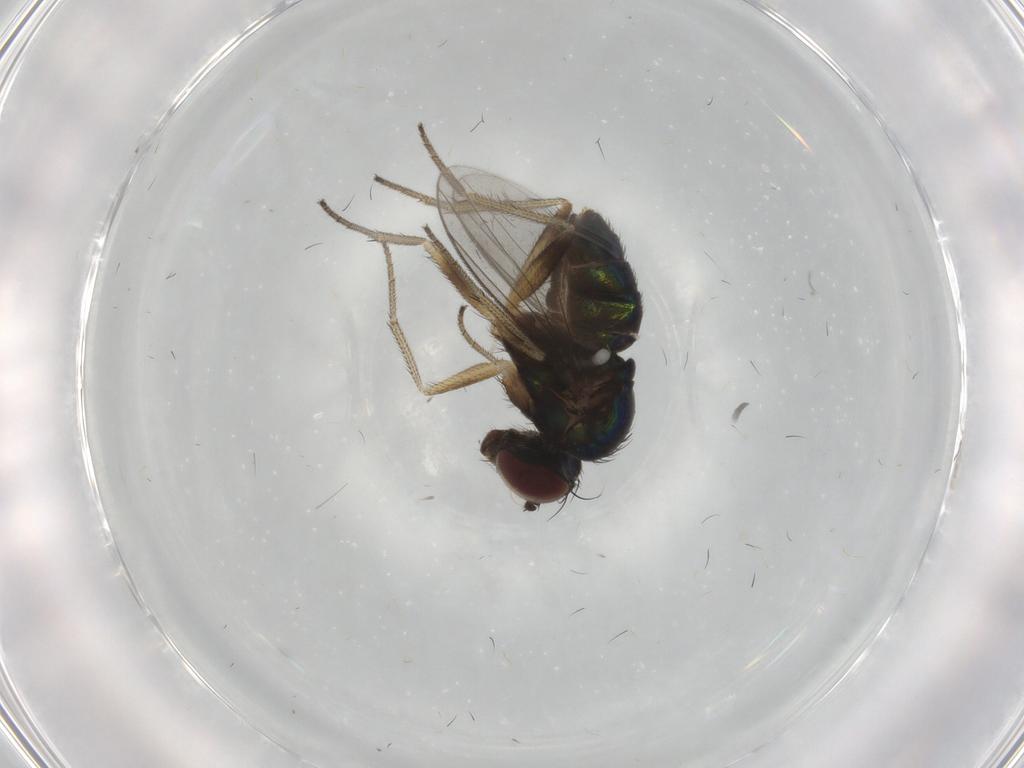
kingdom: Animalia
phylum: Arthropoda
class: Insecta
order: Diptera
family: Dolichopodidae
